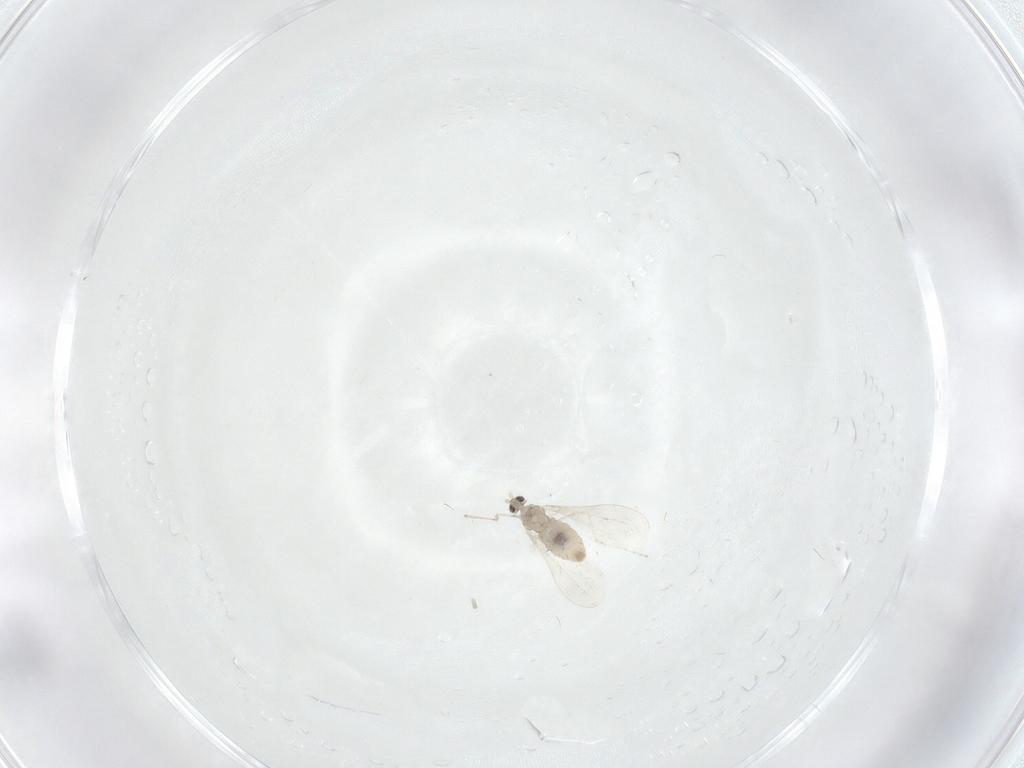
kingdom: Animalia
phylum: Arthropoda
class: Insecta
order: Diptera
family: Cecidomyiidae
